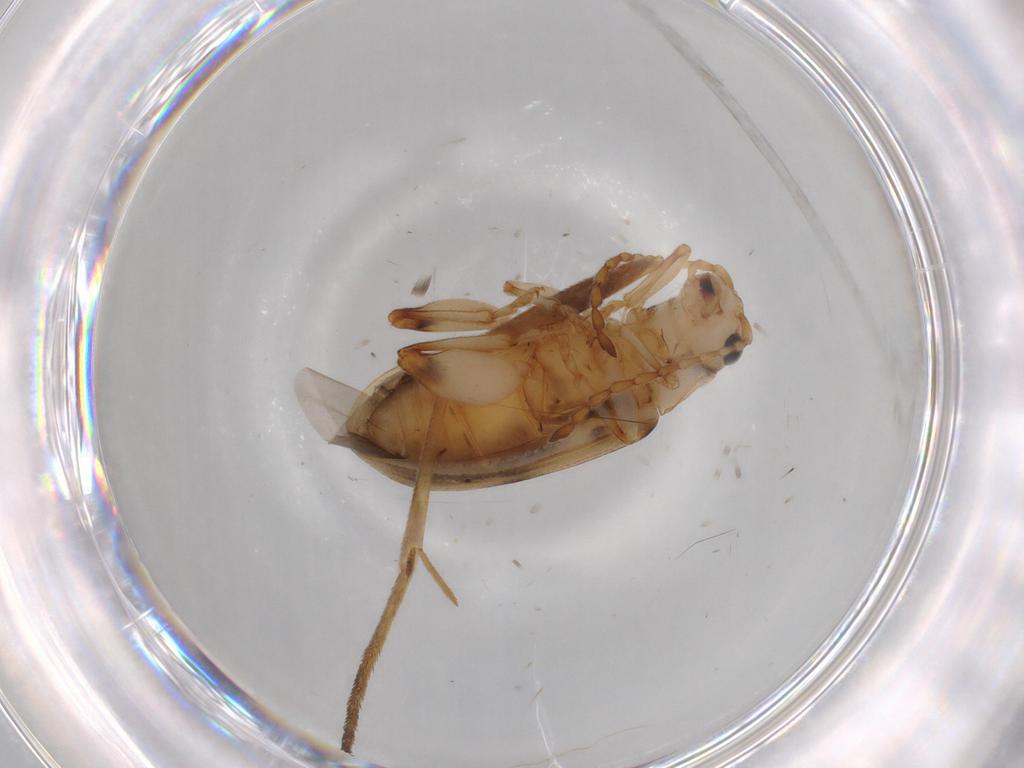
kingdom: Animalia
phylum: Arthropoda
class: Insecta
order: Coleoptera
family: Chrysomelidae
